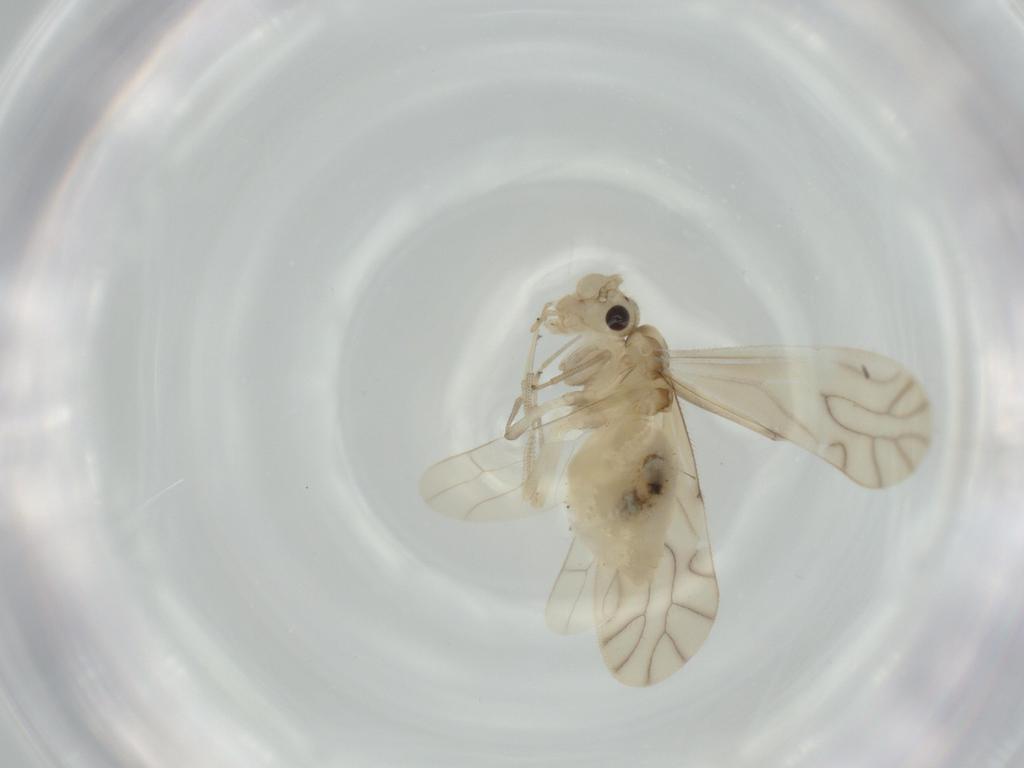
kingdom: Animalia
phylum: Arthropoda
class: Insecta
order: Psocodea
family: Caeciliusidae
